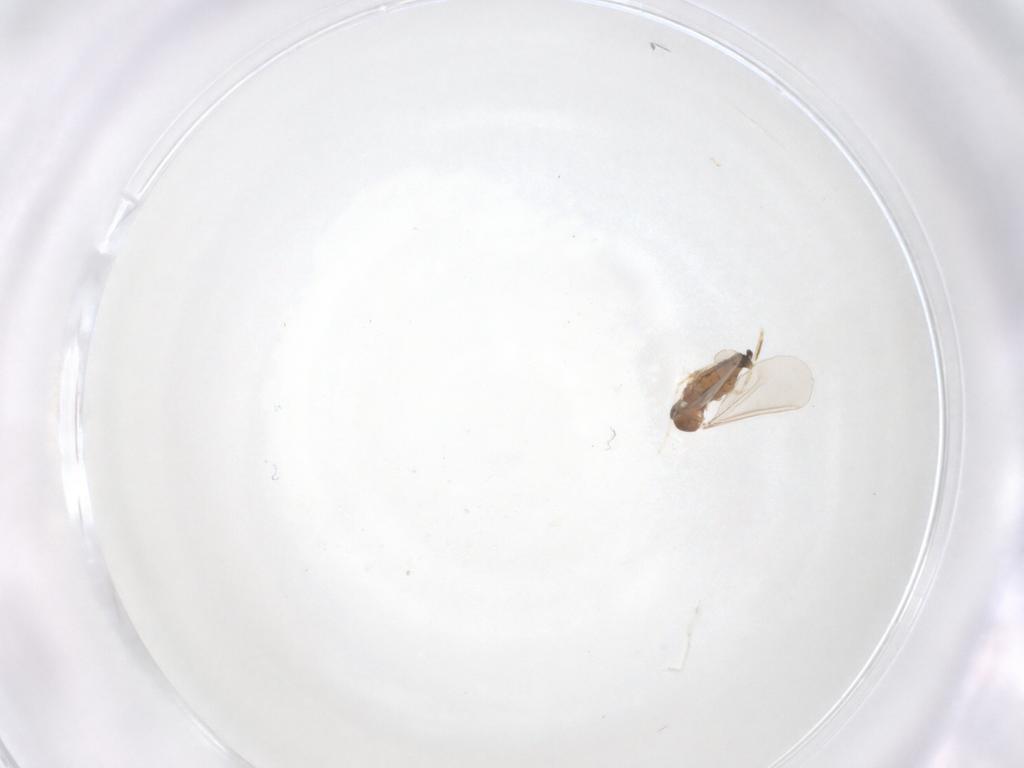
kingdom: Animalia
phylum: Arthropoda
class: Insecta
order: Diptera
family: Cecidomyiidae
